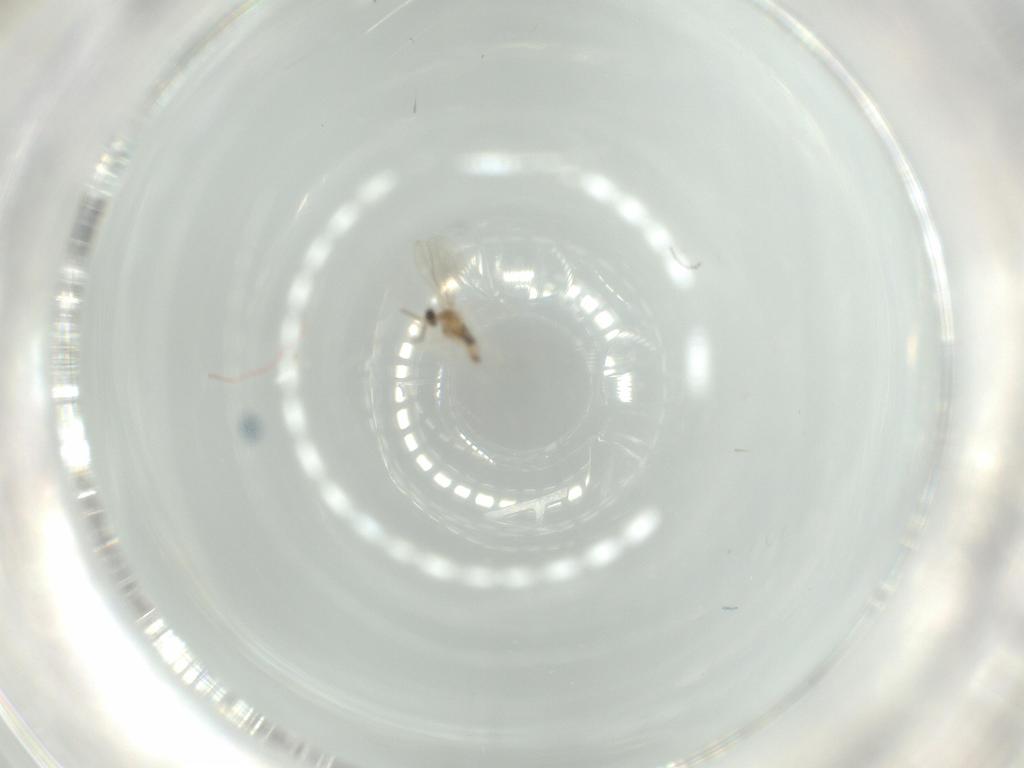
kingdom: Animalia
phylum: Arthropoda
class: Insecta
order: Diptera
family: Cecidomyiidae
